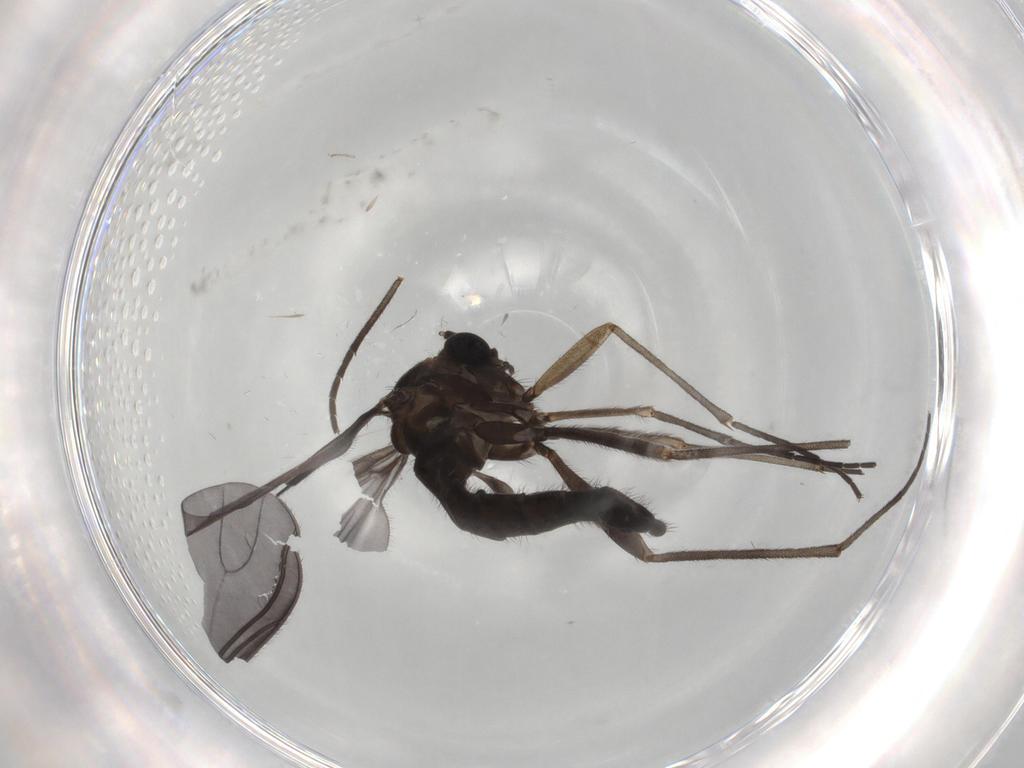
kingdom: Animalia
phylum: Arthropoda
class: Insecta
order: Diptera
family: Sciaridae
